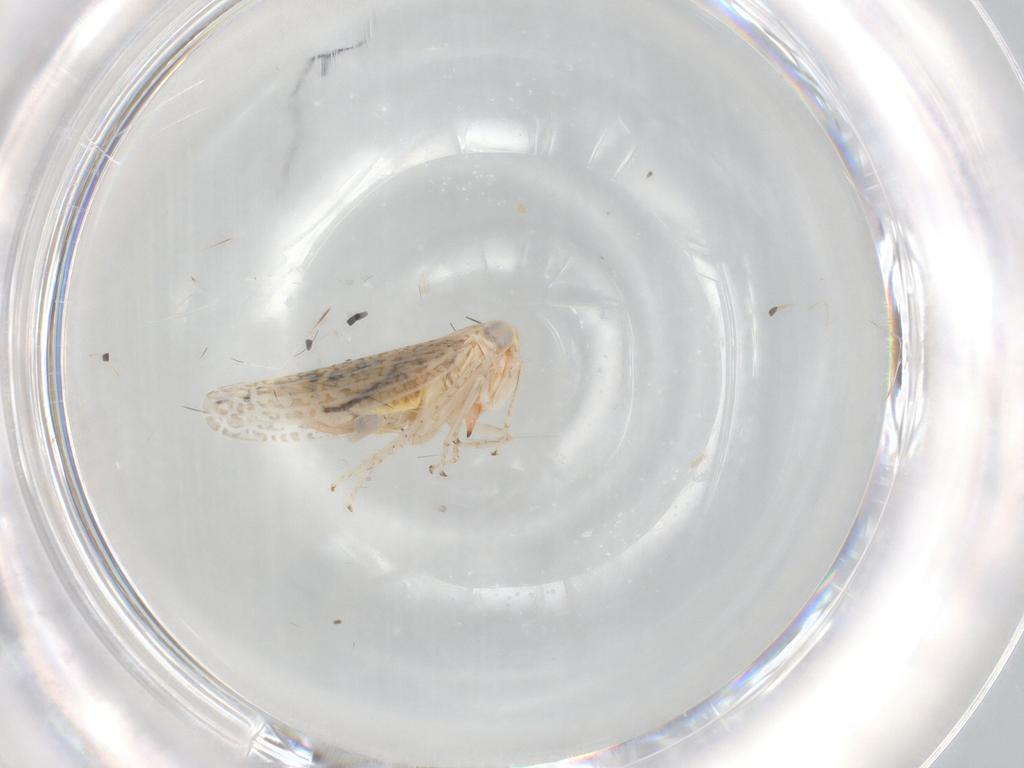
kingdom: Animalia
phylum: Arthropoda
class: Insecta
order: Hemiptera
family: Cicadellidae
